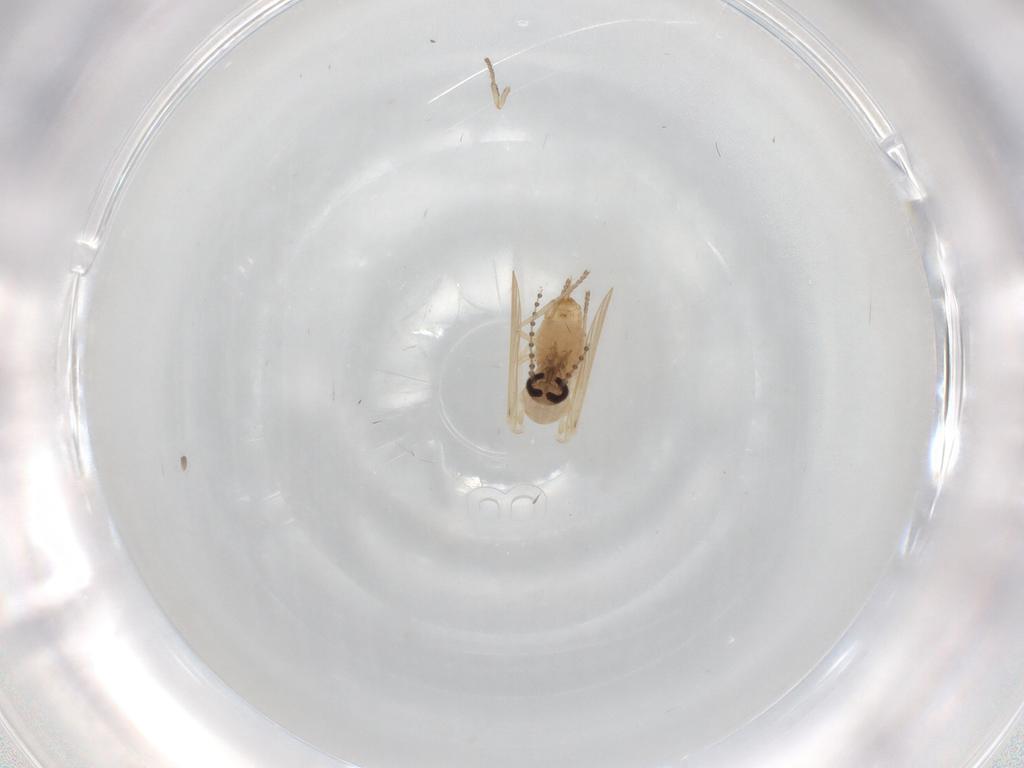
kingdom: Animalia
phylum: Arthropoda
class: Insecta
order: Diptera
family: Psychodidae
